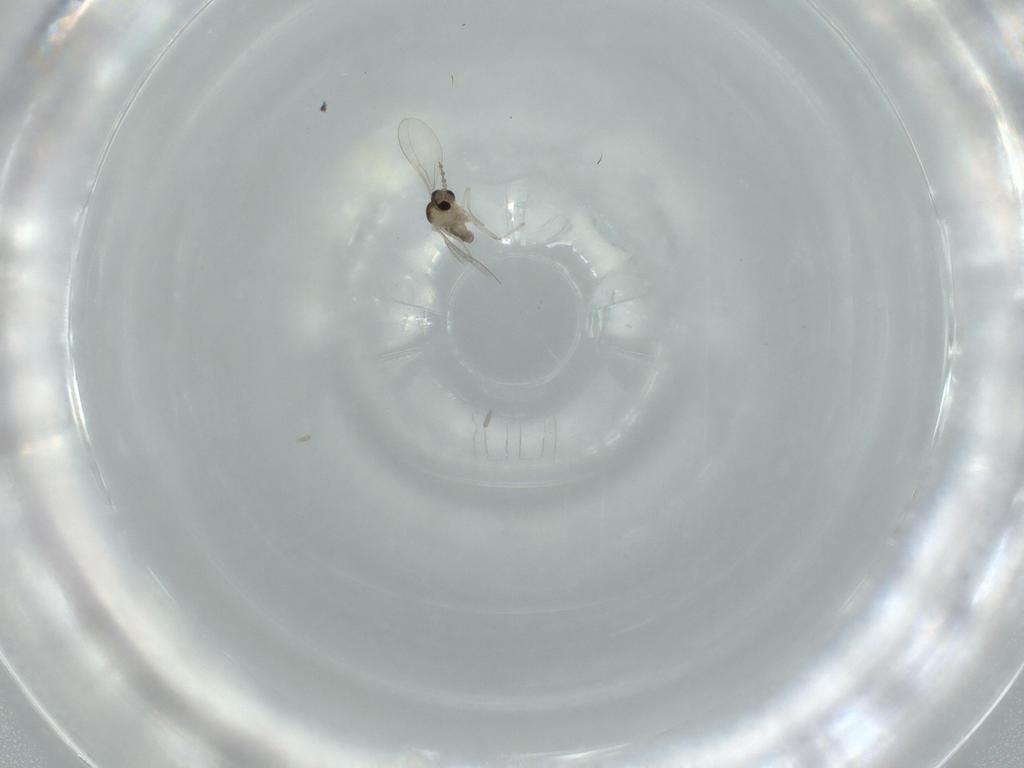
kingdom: Animalia
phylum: Arthropoda
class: Insecta
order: Diptera
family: Cecidomyiidae
